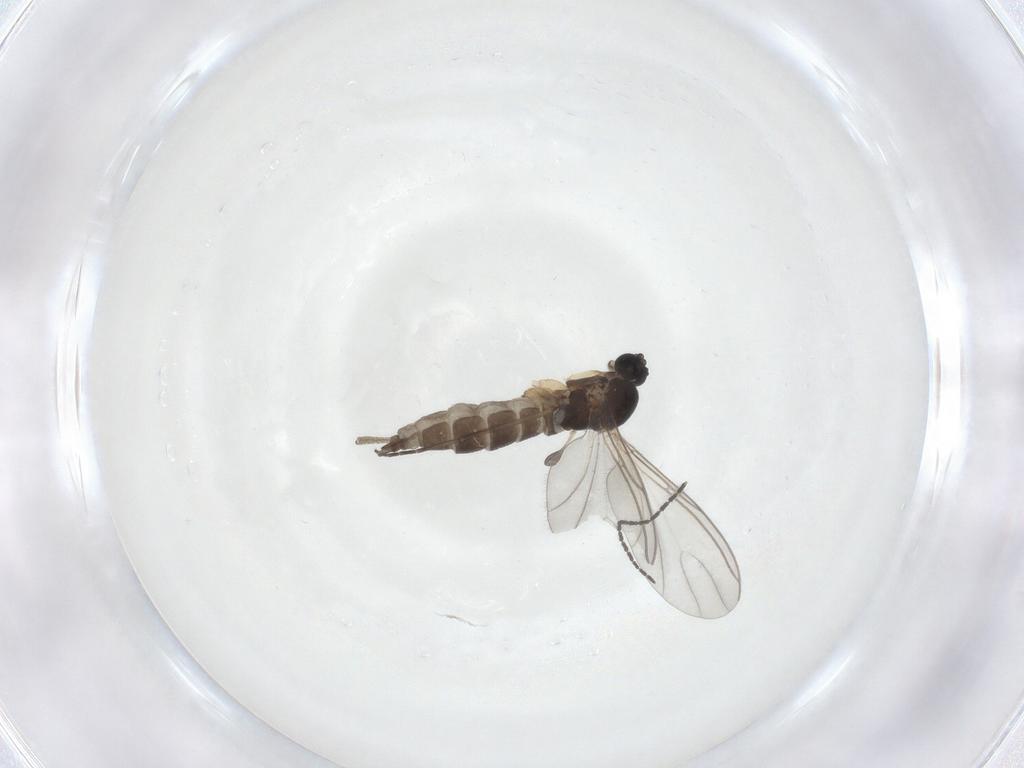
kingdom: Animalia
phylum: Arthropoda
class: Insecta
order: Diptera
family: Sciaridae
